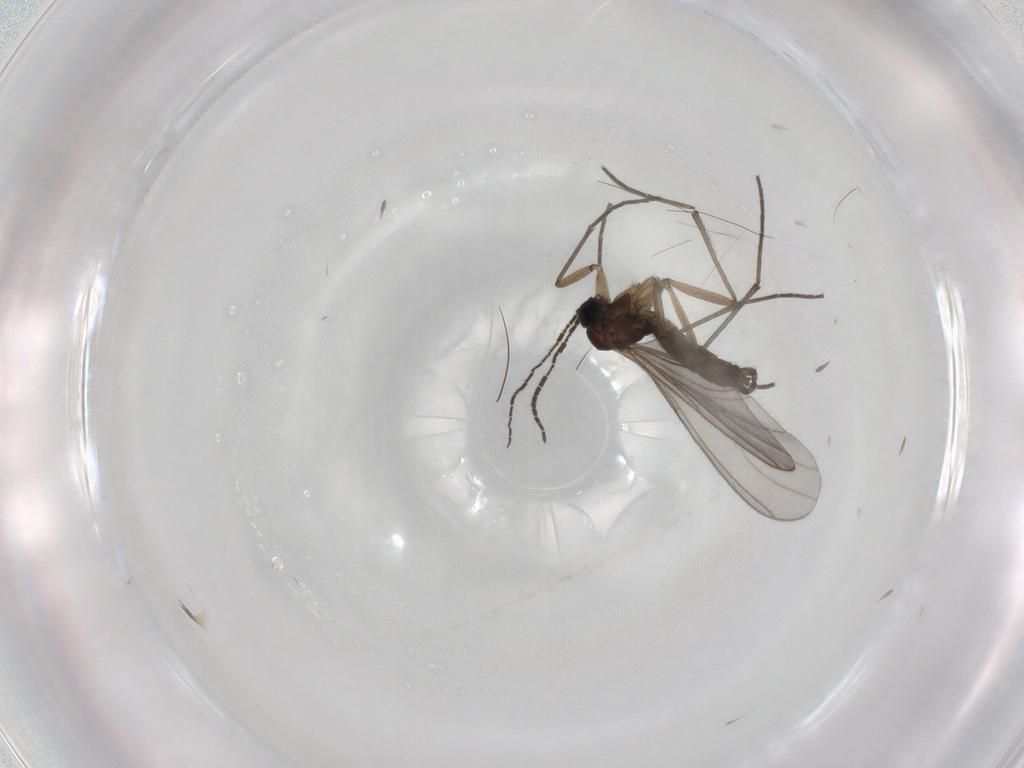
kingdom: Animalia
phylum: Arthropoda
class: Insecta
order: Diptera
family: Sciaridae
